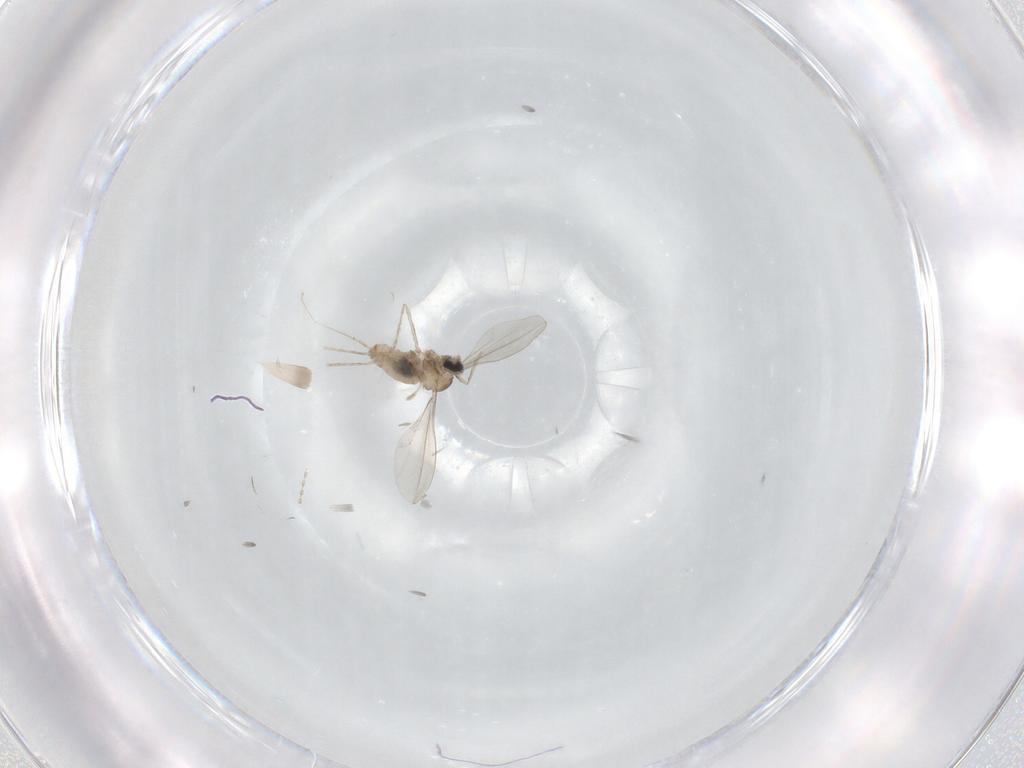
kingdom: Animalia
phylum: Arthropoda
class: Insecta
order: Diptera
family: Cecidomyiidae
